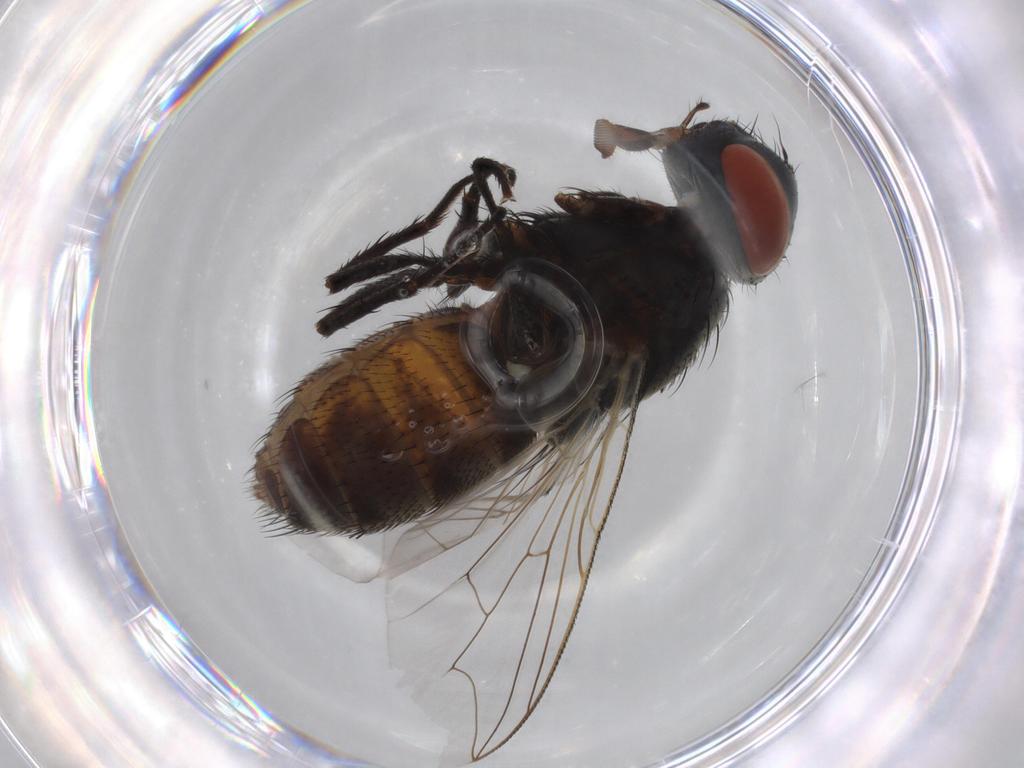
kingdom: Animalia
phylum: Arthropoda
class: Insecta
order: Diptera
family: Sarcophagidae
